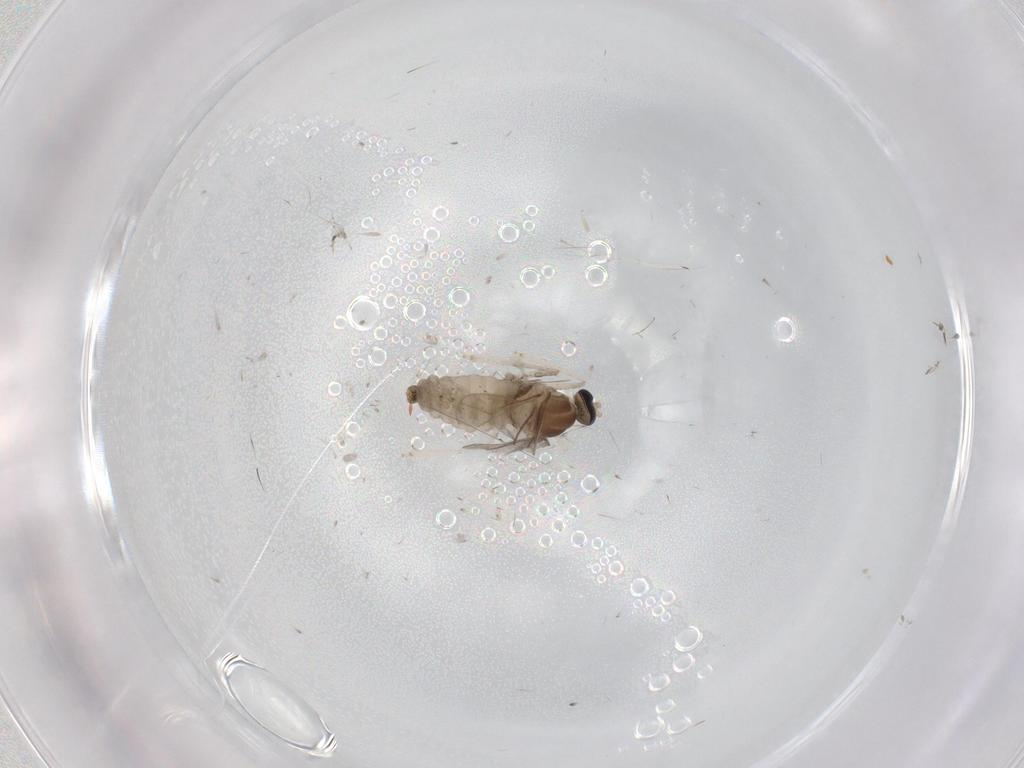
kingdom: Animalia
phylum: Arthropoda
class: Insecta
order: Diptera
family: Cecidomyiidae
